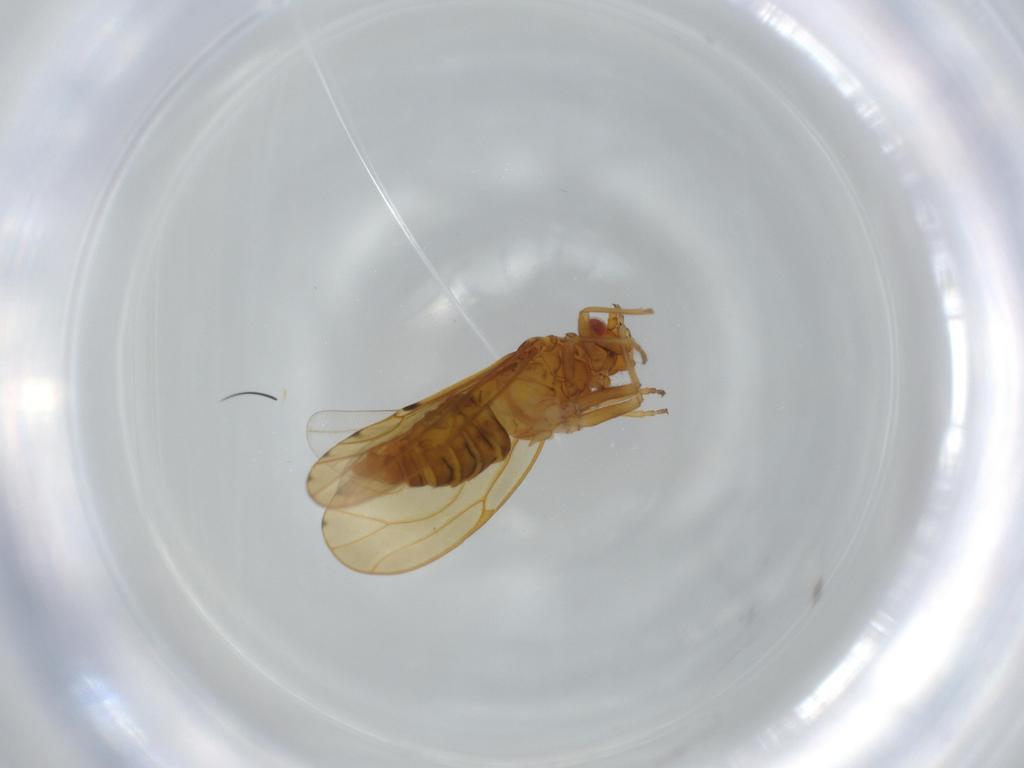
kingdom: Animalia
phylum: Arthropoda
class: Insecta
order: Hemiptera
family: Psylloidea_incertae_sedis
